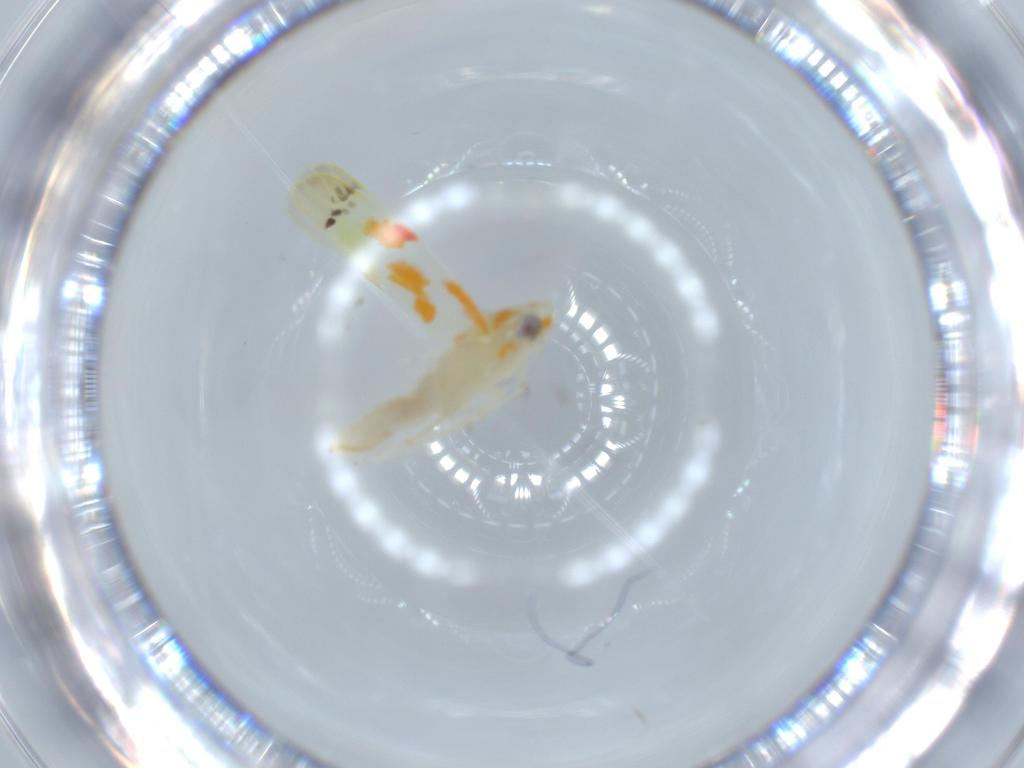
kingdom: Animalia
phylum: Arthropoda
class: Insecta
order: Hemiptera
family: Cicadellidae
